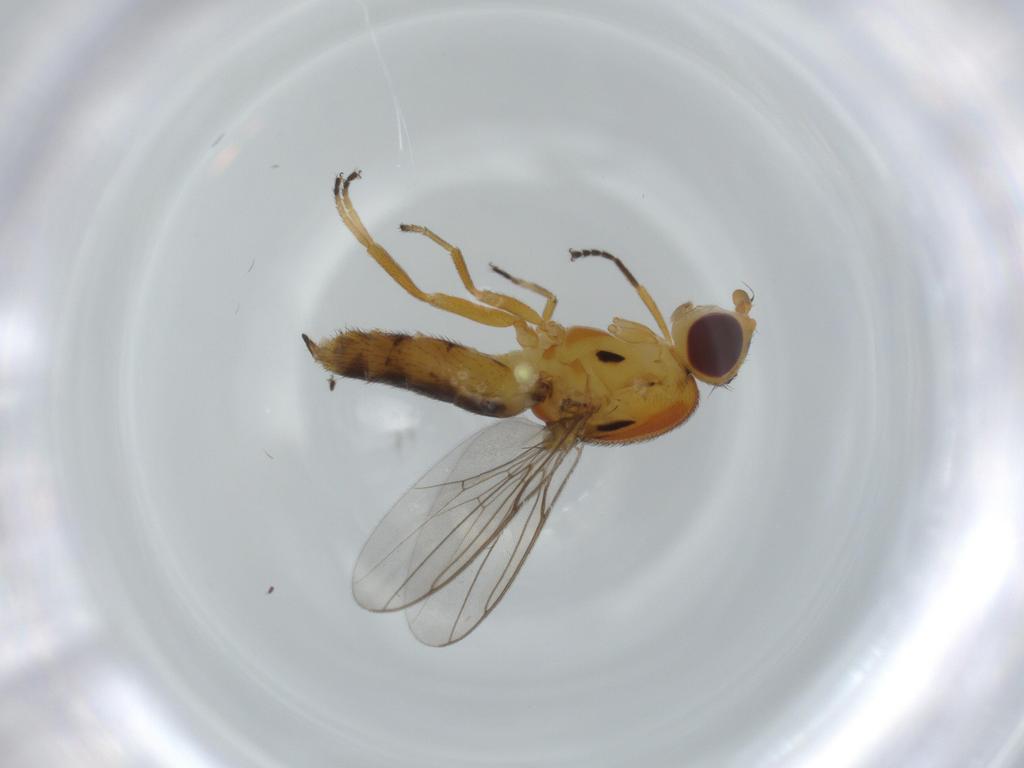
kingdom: Animalia
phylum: Arthropoda
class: Insecta
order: Diptera
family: Chloropidae
